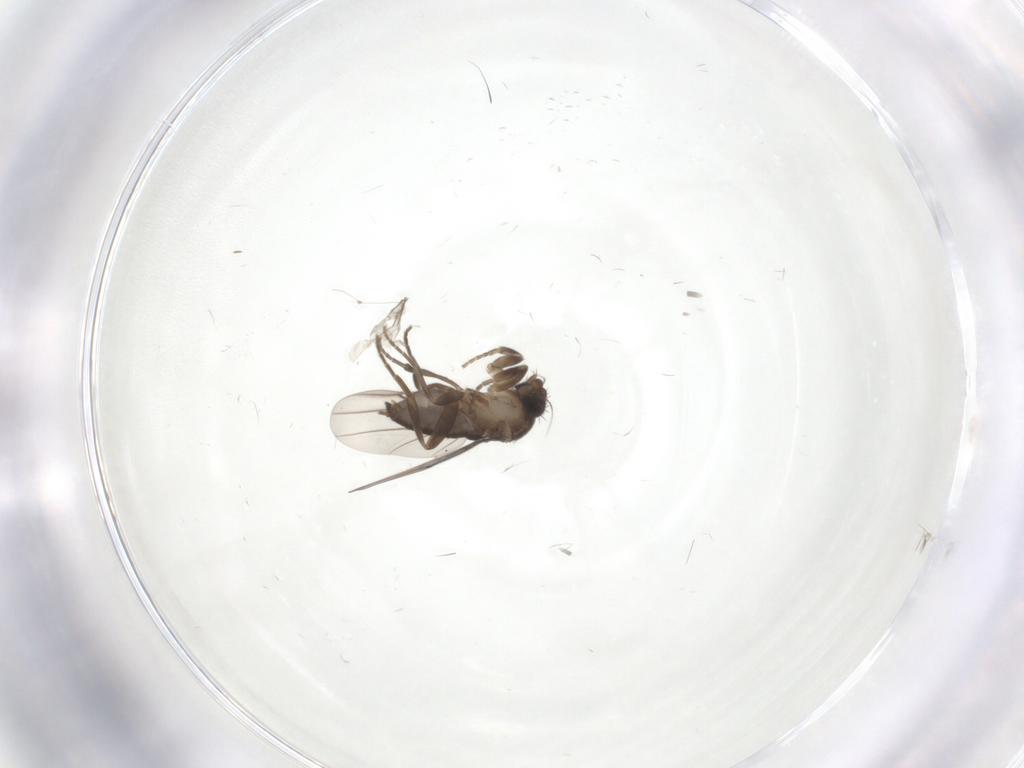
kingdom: Animalia
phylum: Arthropoda
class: Insecta
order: Diptera
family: Phoridae
